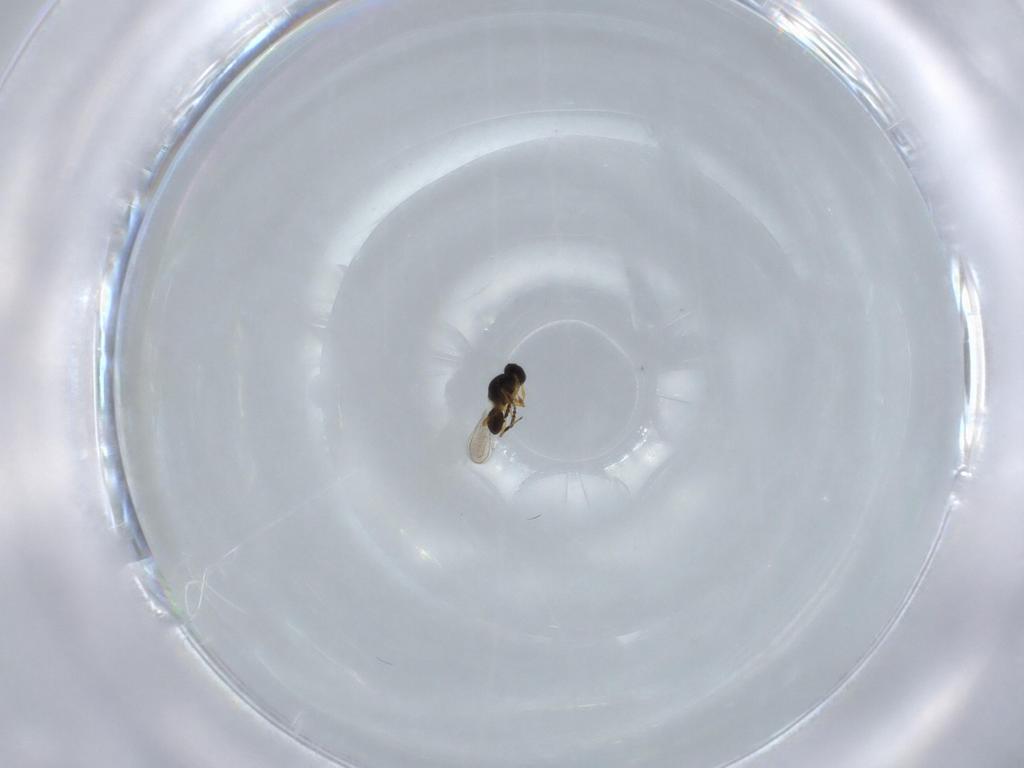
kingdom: Animalia
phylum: Arthropoda
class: Insecta
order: Hymenoptera
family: Platygastridae
